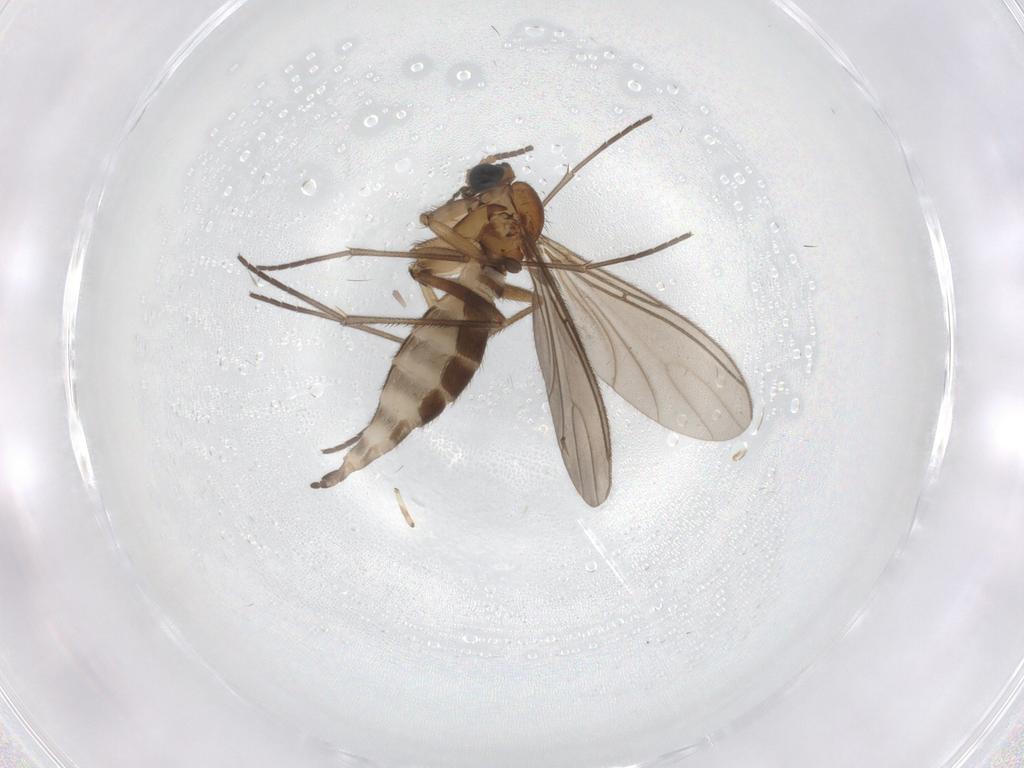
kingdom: Animalia
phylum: Arthropoda
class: Insecta
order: Diptera
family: Sciaridae
